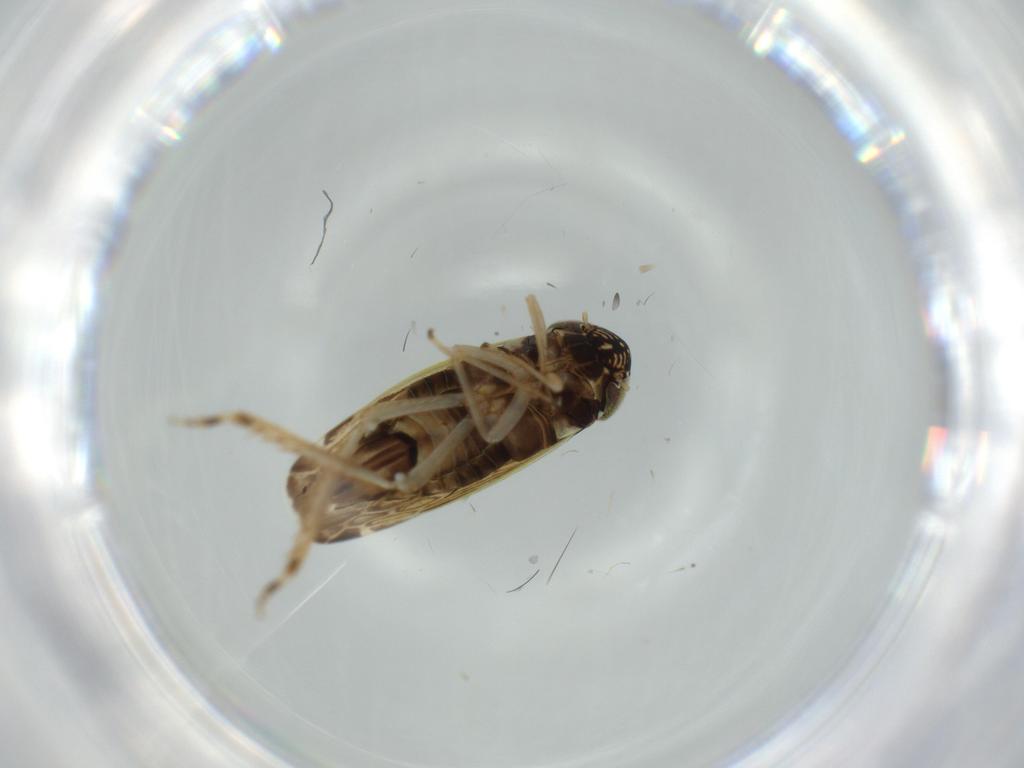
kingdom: Animalia
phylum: Arthropoda
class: Insecta
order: Hemiptera
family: Cicadellidae
